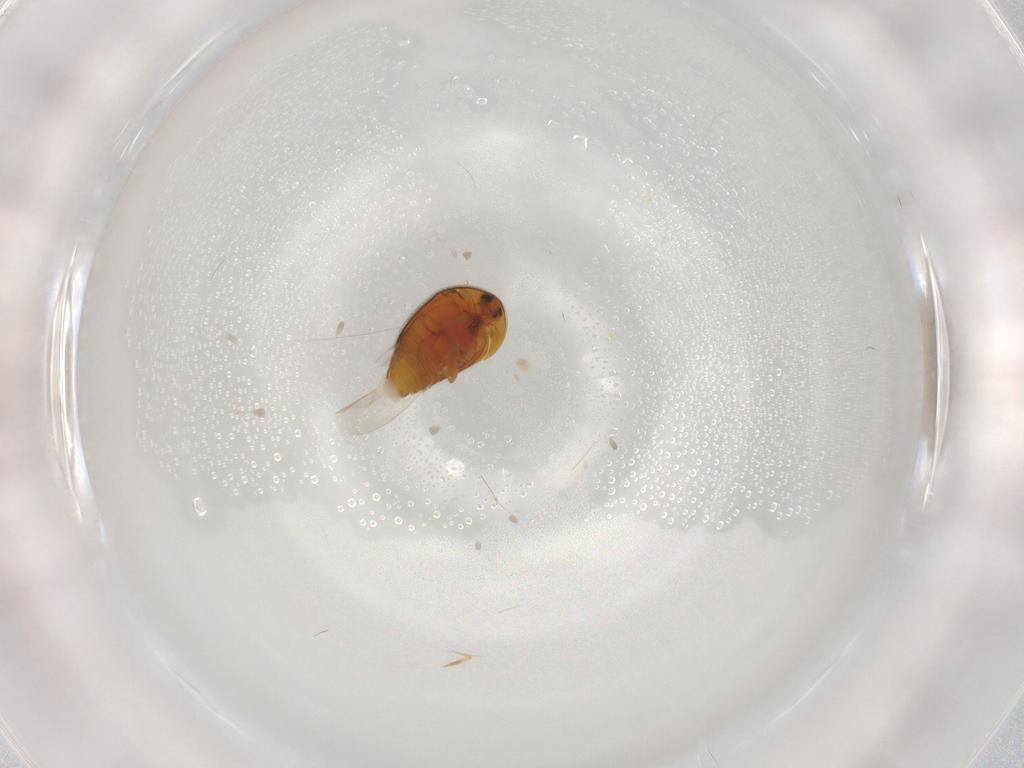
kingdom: Animalia
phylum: Arthropoda
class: Insecta
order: Coleoptera
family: Corylophidae
